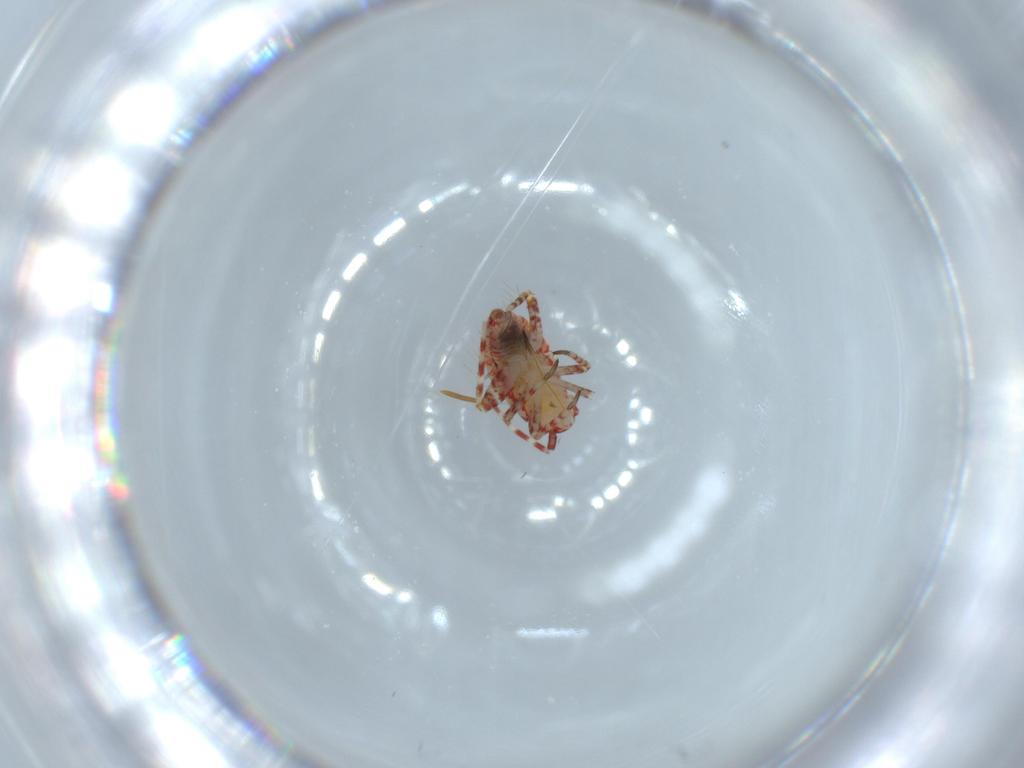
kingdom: Animalia
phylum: Arthropoda
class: Insecta
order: Hemiptera
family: Miridae
